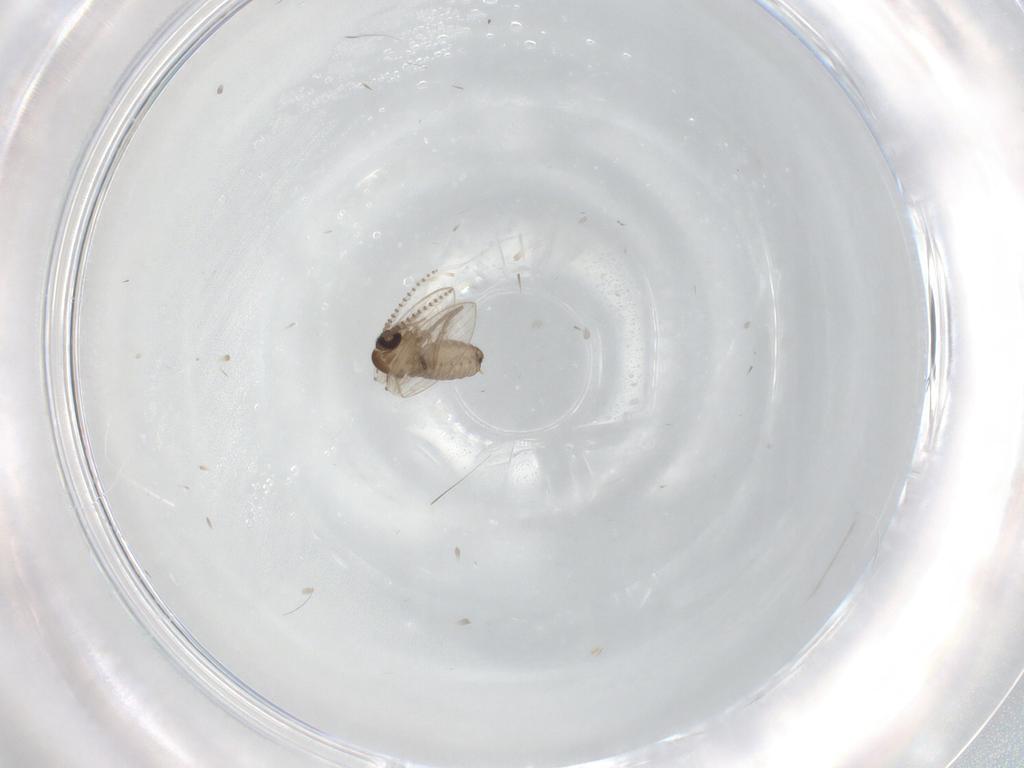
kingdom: Animalia
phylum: Arthropoda
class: Insecta
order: Diptera
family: Psychodidae
